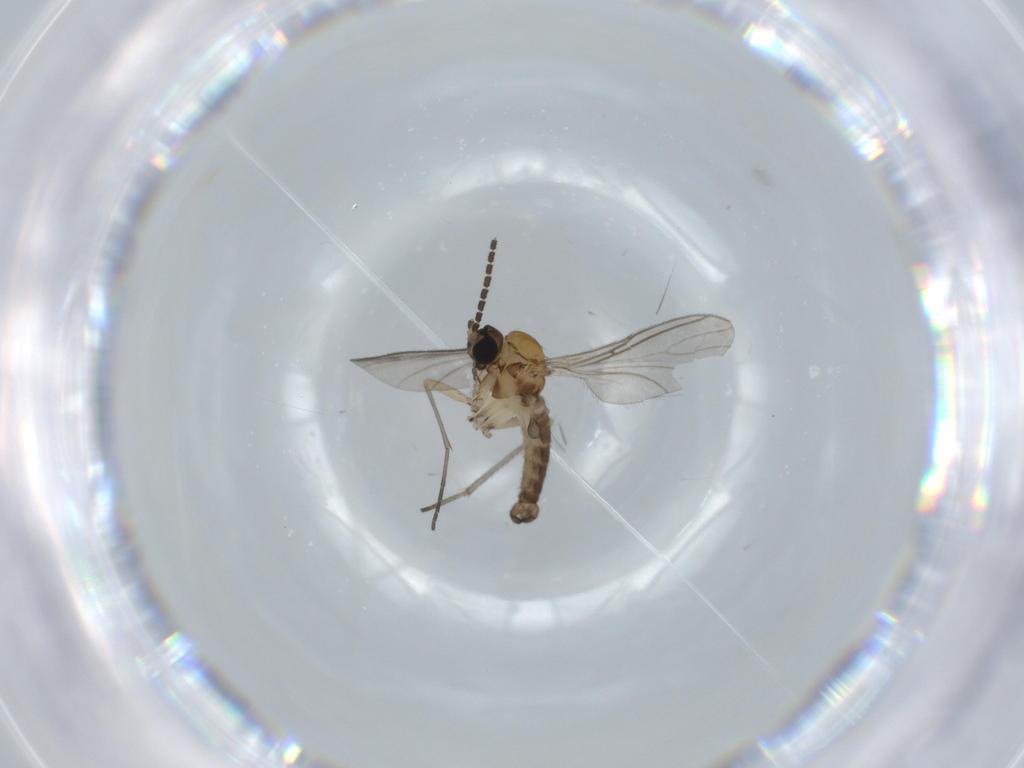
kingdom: Animalia
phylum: Arthropoda
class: Insecta
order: Diptera
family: Sciaridae
